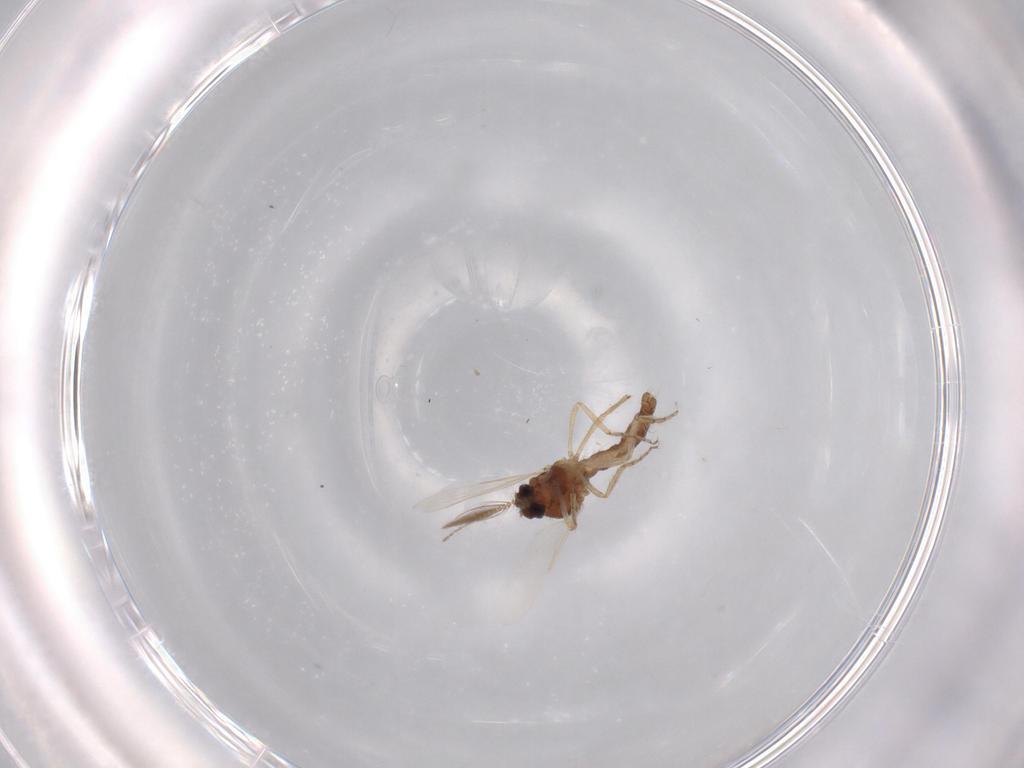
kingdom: Animalia
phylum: Arthropoda
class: Insecta
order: Diptera
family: Ceratopogonidae
